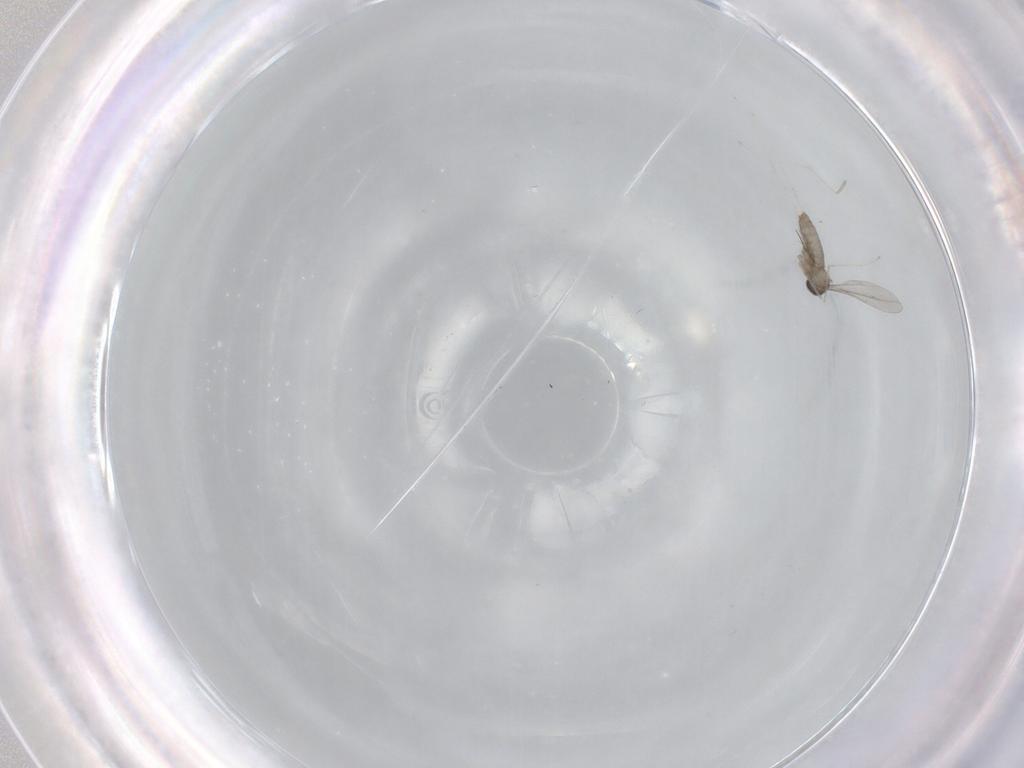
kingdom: Animalia
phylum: Arthropoda
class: Insecta
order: Diptera
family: Cecidomyiidae
